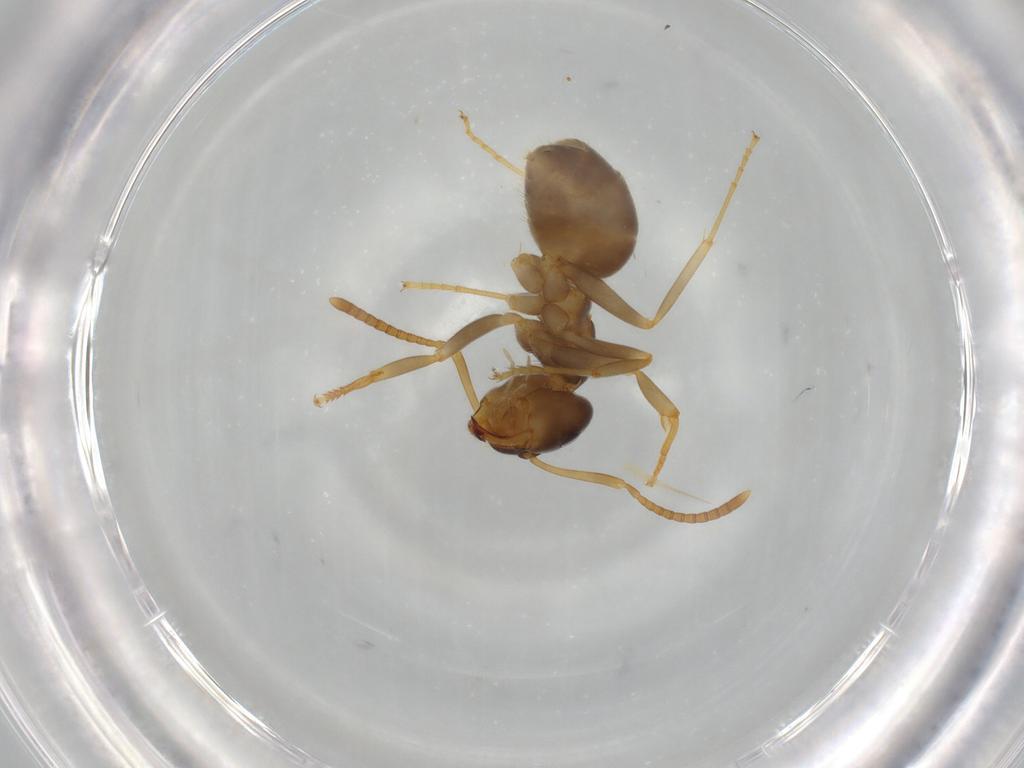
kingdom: Animalia
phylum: Arthropoda
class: Insecta
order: Hymenoptera
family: Formicidae
